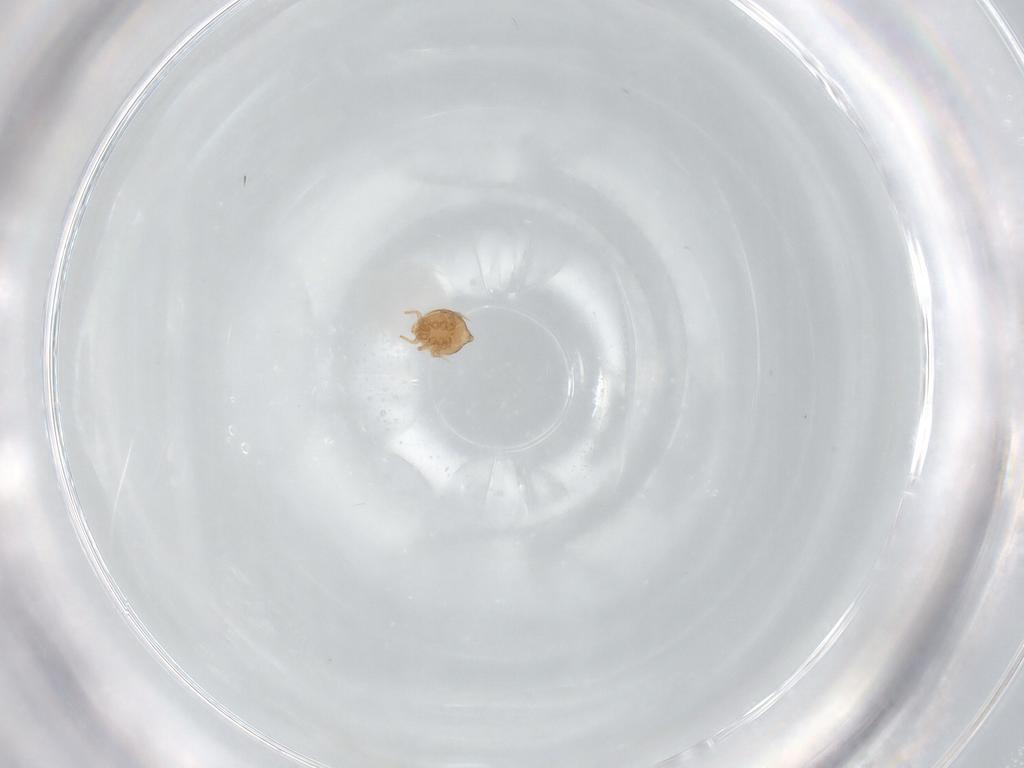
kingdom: Animalia
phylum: Arthropoda
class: Arachnida
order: Mesostigmata
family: Polyaspididae
